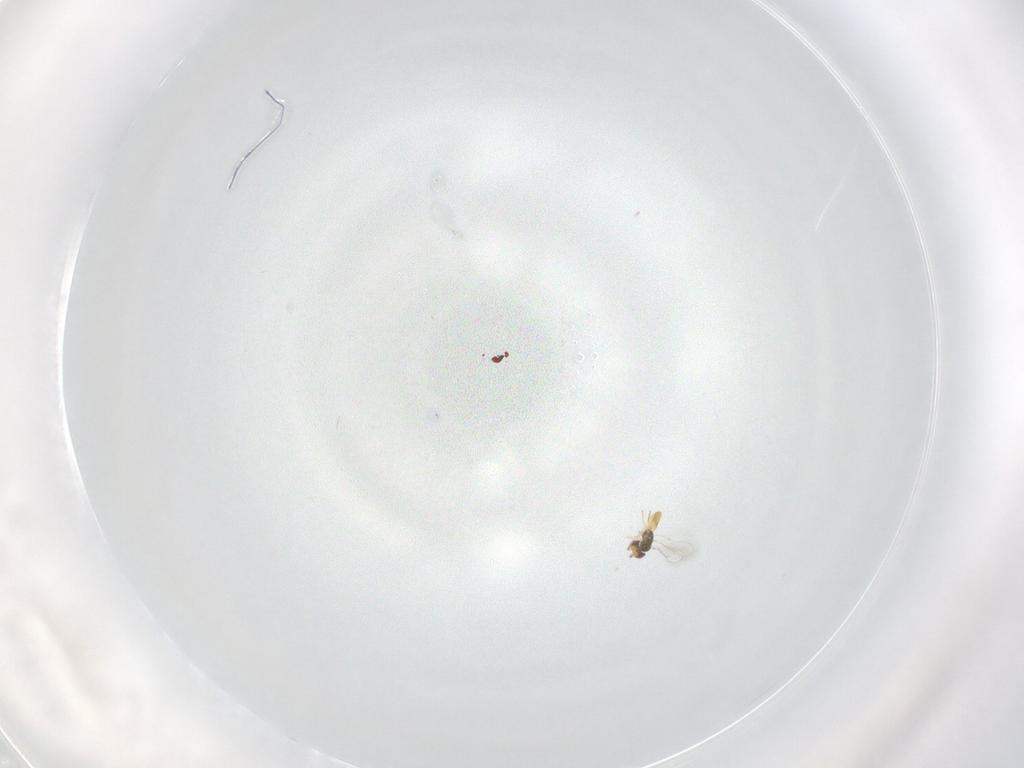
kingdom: Animalia
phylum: Arthropoda
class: Insecta
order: Hymenoptera
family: Eulophidae
